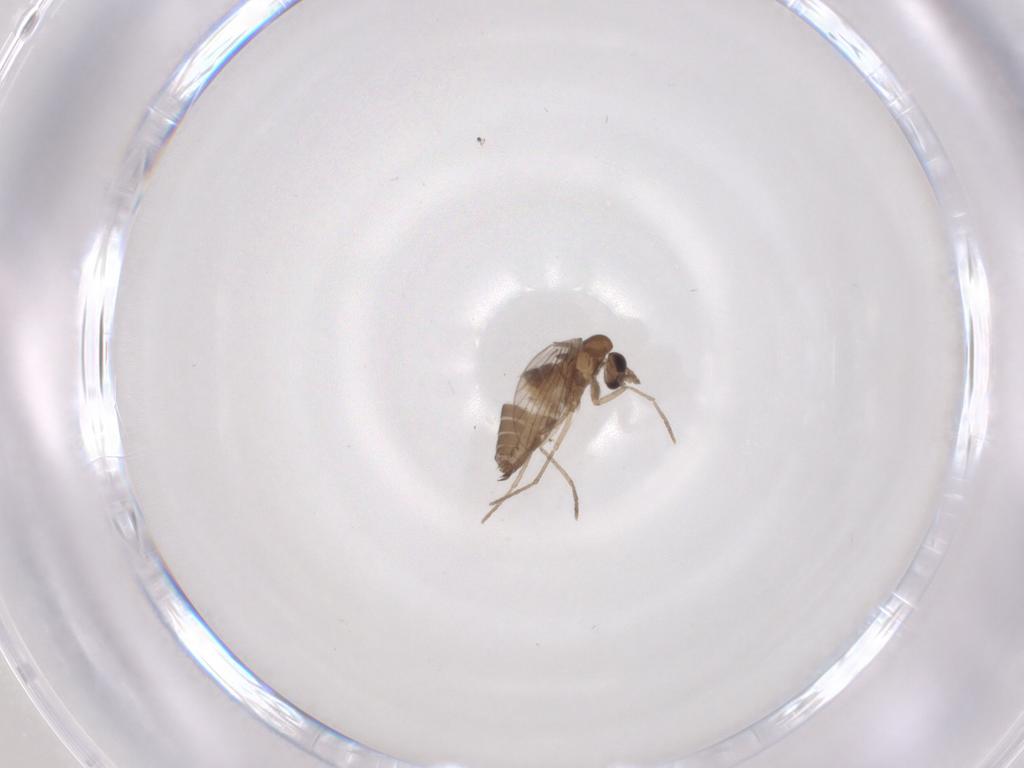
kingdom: Animalia
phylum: Arthropoda
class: Insecta
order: Diptera
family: Psychodidae
